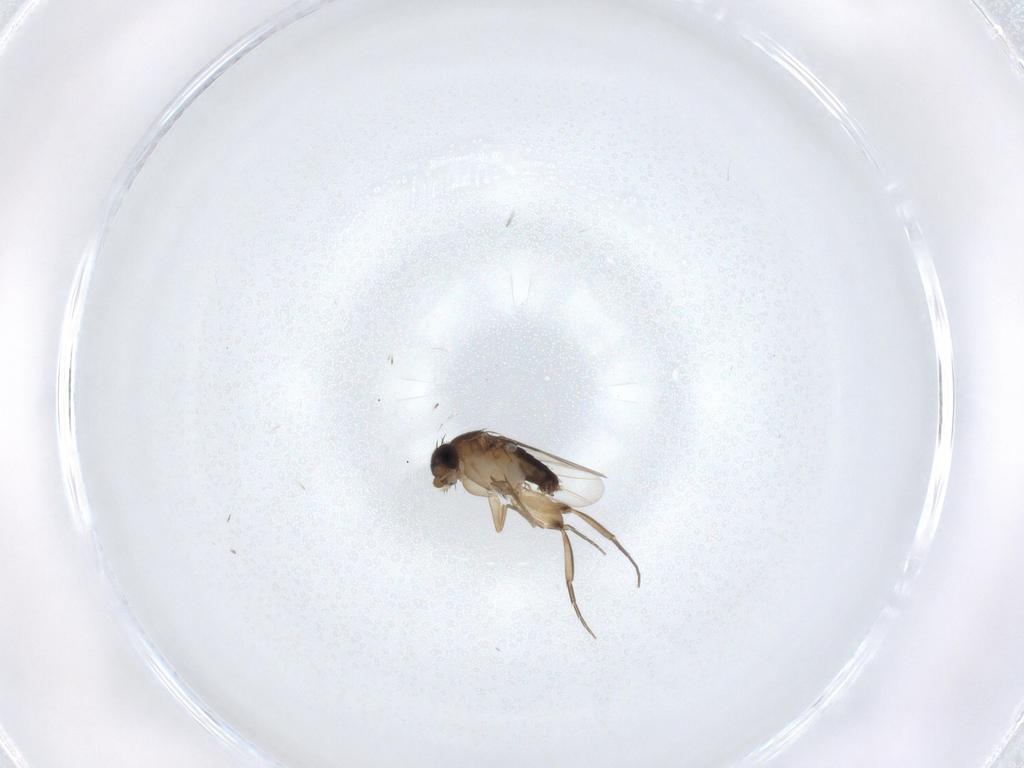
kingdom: Animalia
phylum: Arthropoda
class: Insecta
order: Diptera
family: Phoridae
